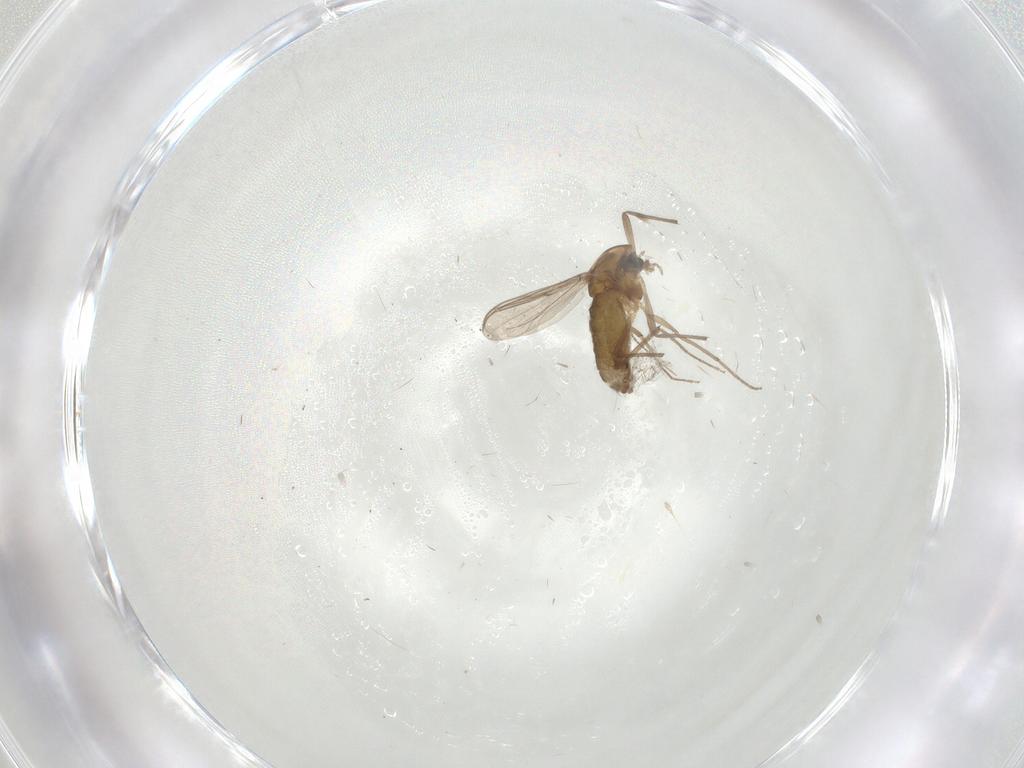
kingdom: Animalia
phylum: Arthropoda
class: Insecta
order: Diptera
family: Chironomidae
